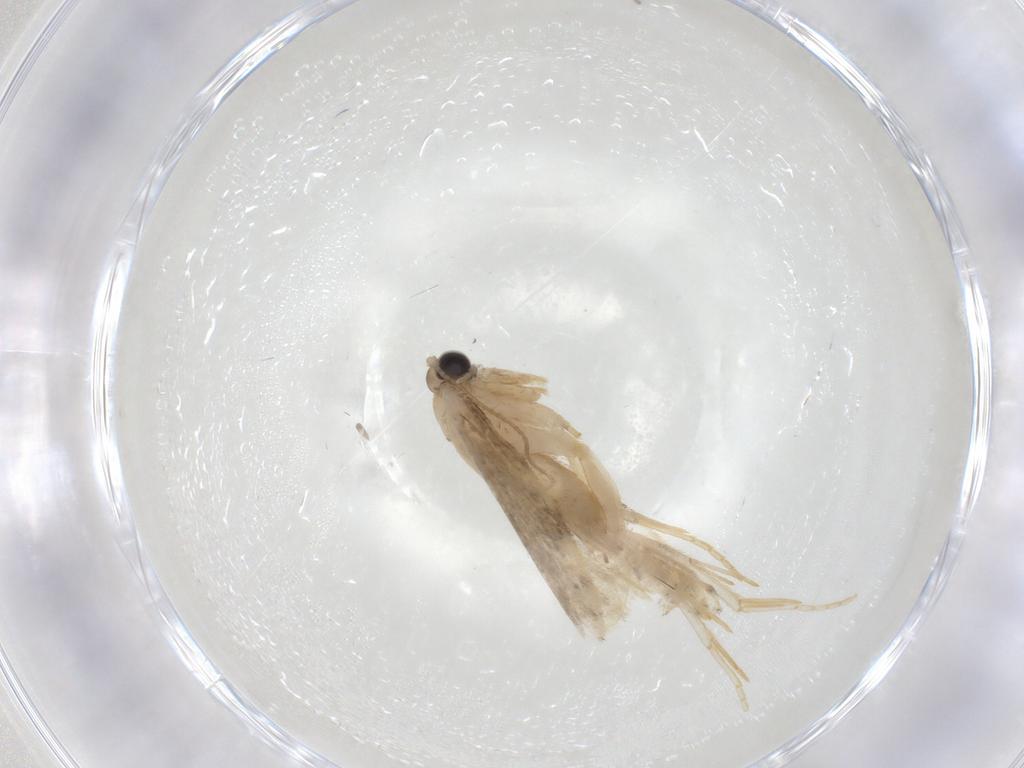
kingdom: Animalia
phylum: Arthropoda
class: Insecta
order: Lepidoptera
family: Psychidae
